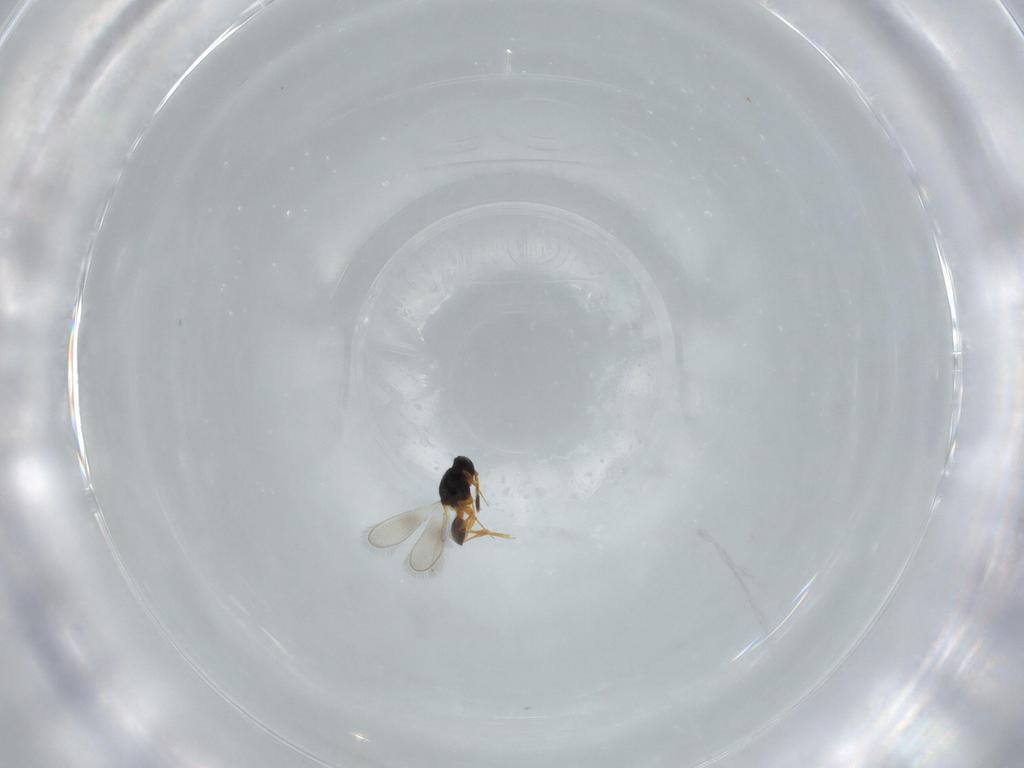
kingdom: Animalia
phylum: Arthropoda
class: Insecta
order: Hymenoptera
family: Platygastridae
